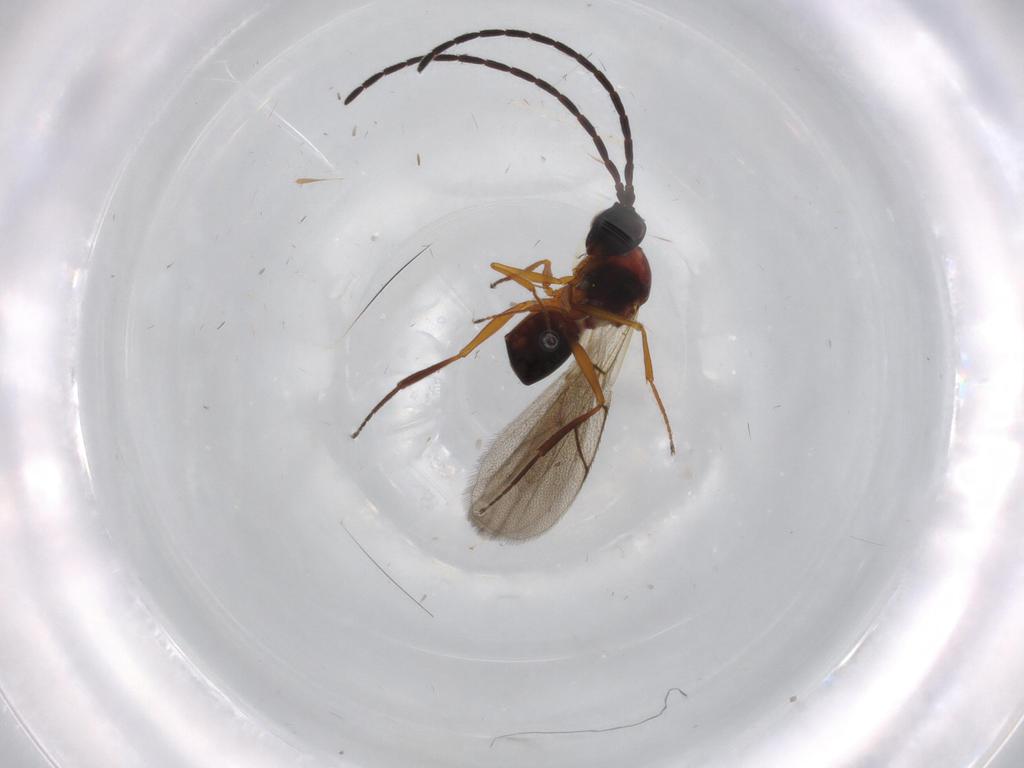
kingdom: Animalia
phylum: Arthropoda
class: Insecta
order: Hymenoptera
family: Figitidae
